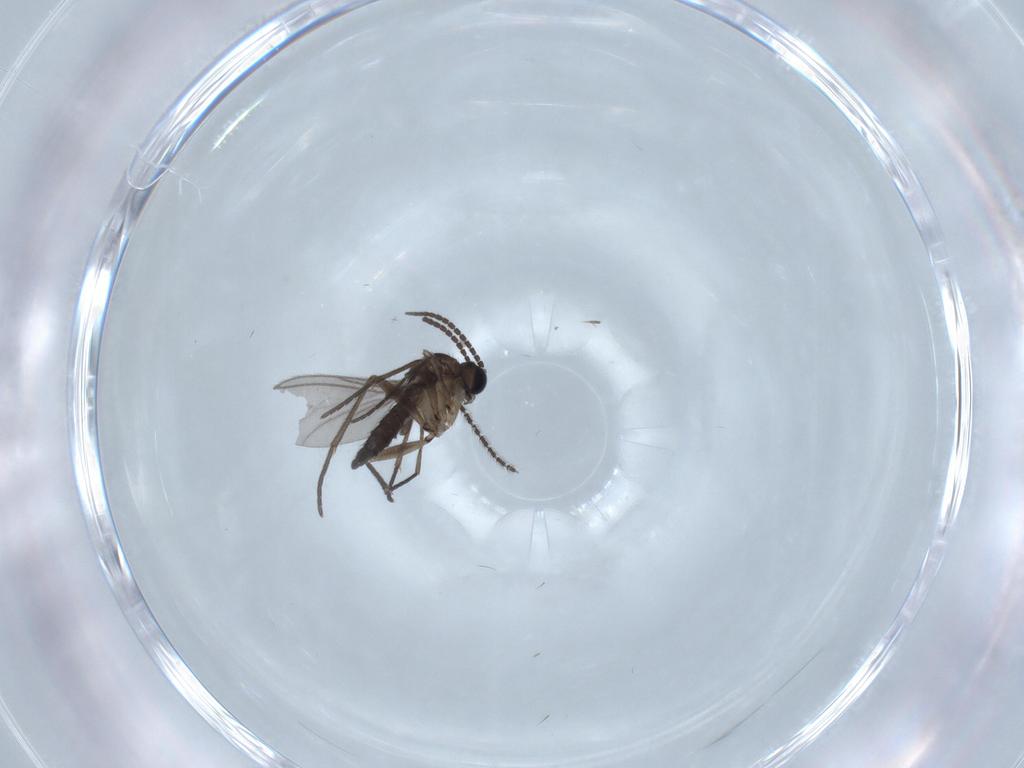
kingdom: Animalia
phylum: Arthropoda
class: Insecta
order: Diptera
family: Sciaridae
